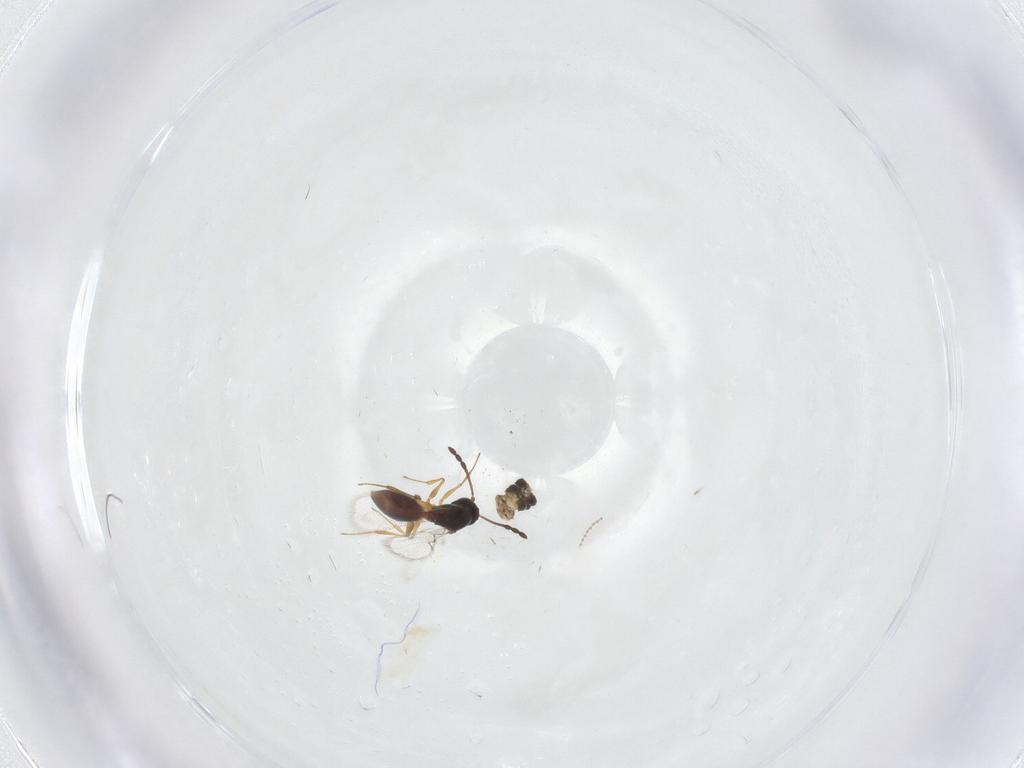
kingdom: Animalia
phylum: Arthropoda
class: Insecta
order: Hymenoptera
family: Figitidae
